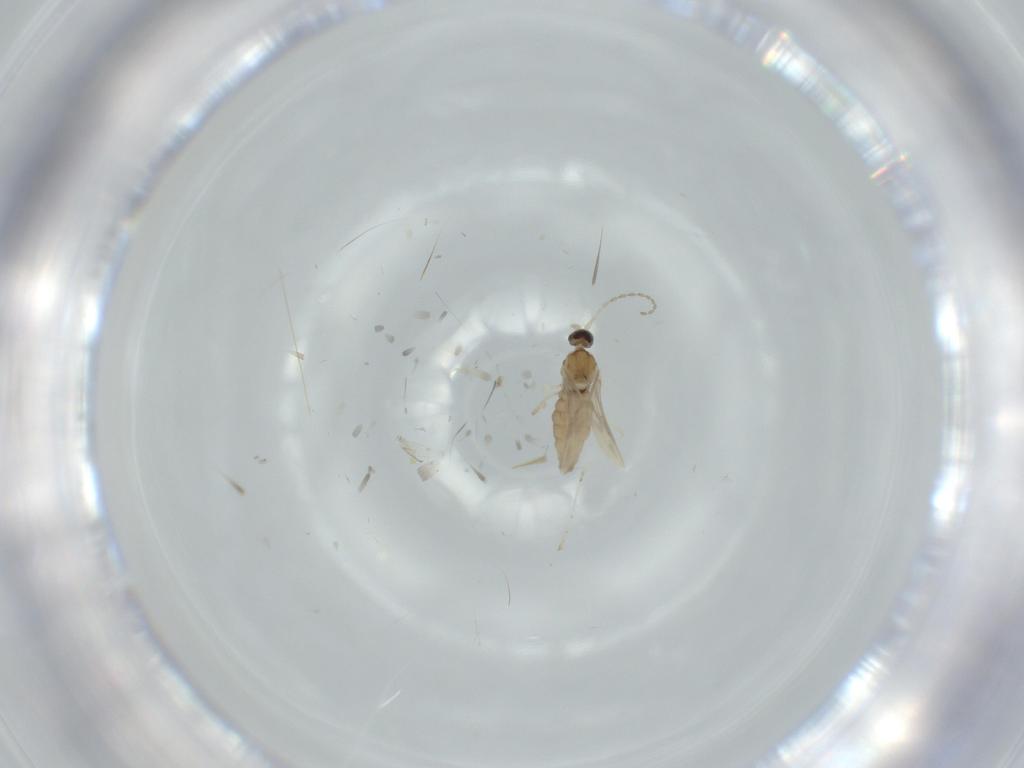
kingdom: Animalia
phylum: Arthropoda
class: Insecta
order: Diptera
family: Cecidomyiidae
